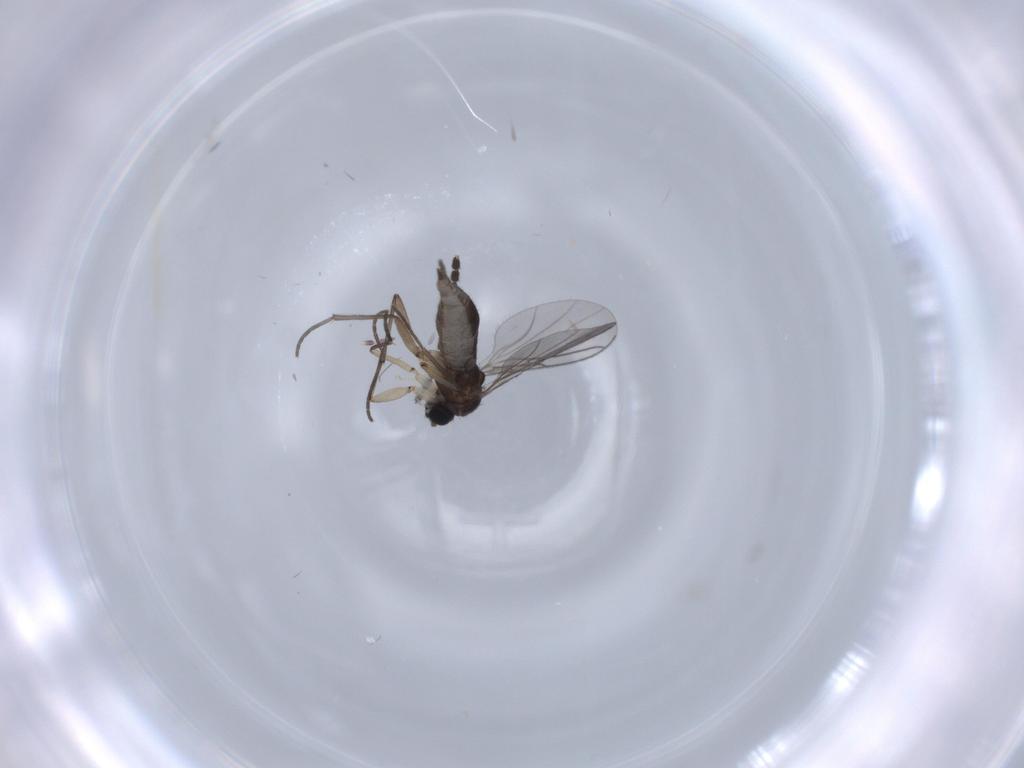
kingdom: Animalia
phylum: Arthropoda
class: Insecta
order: Diptera
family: Sciaridae
